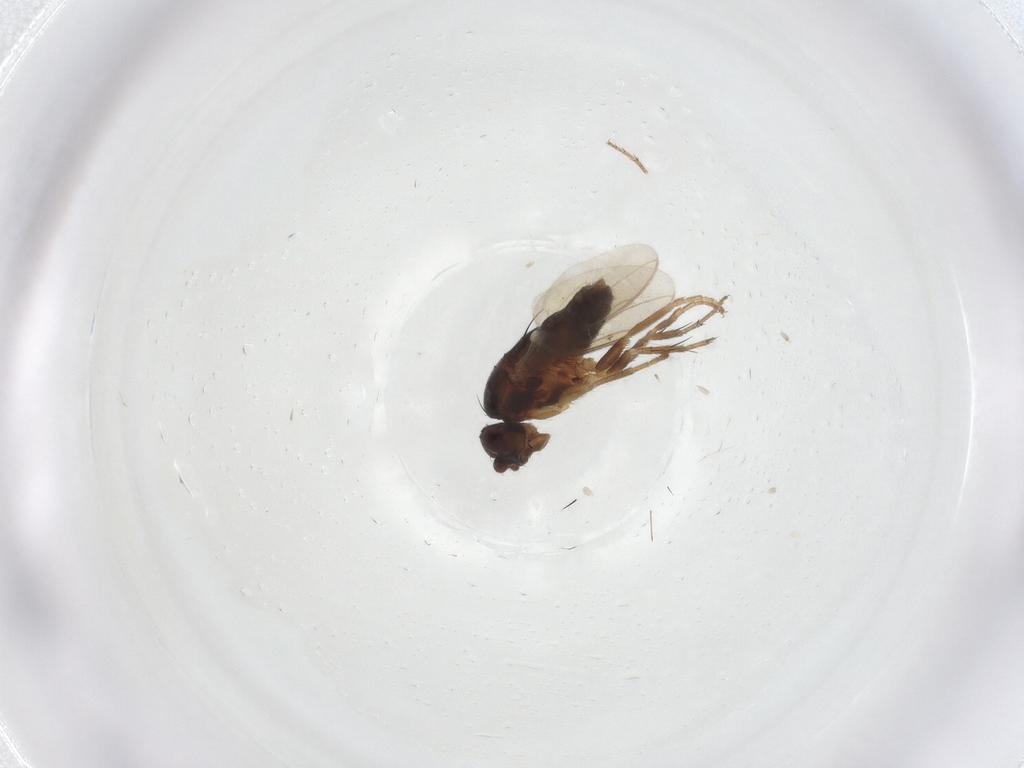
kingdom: Animalia
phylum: Arthropoda
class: Insecta
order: Diptera
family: Sphaeroceridae
